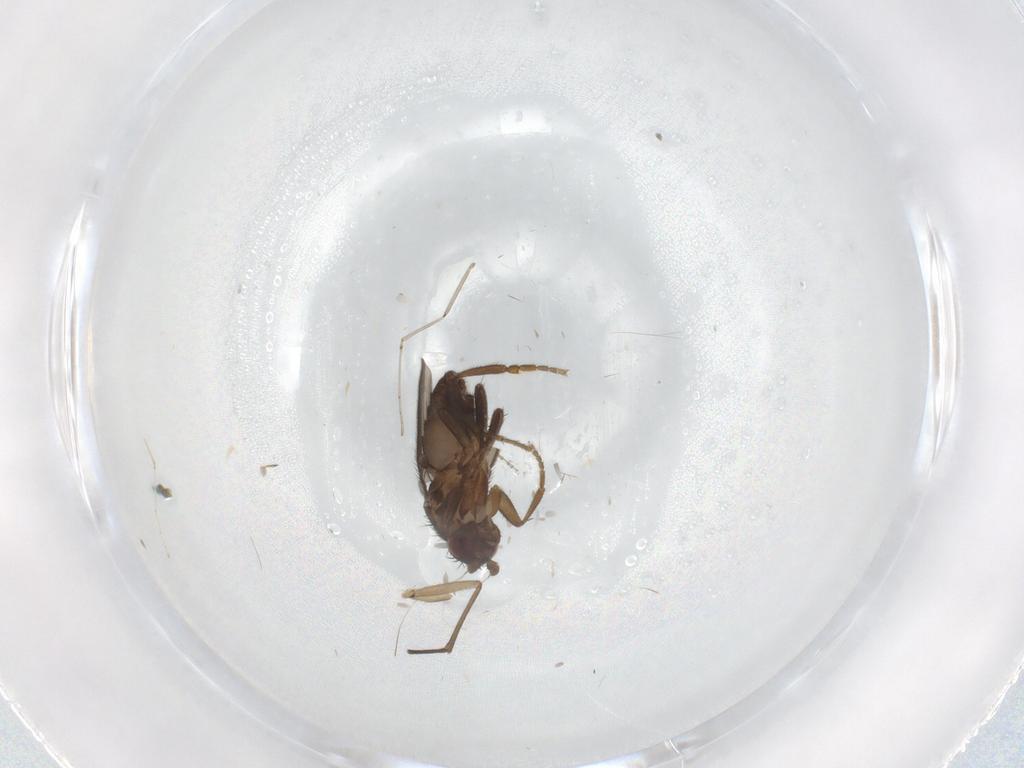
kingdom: Animalia
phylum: Arthropoda
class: Insecta
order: Diptera
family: Sphaeroceridae
